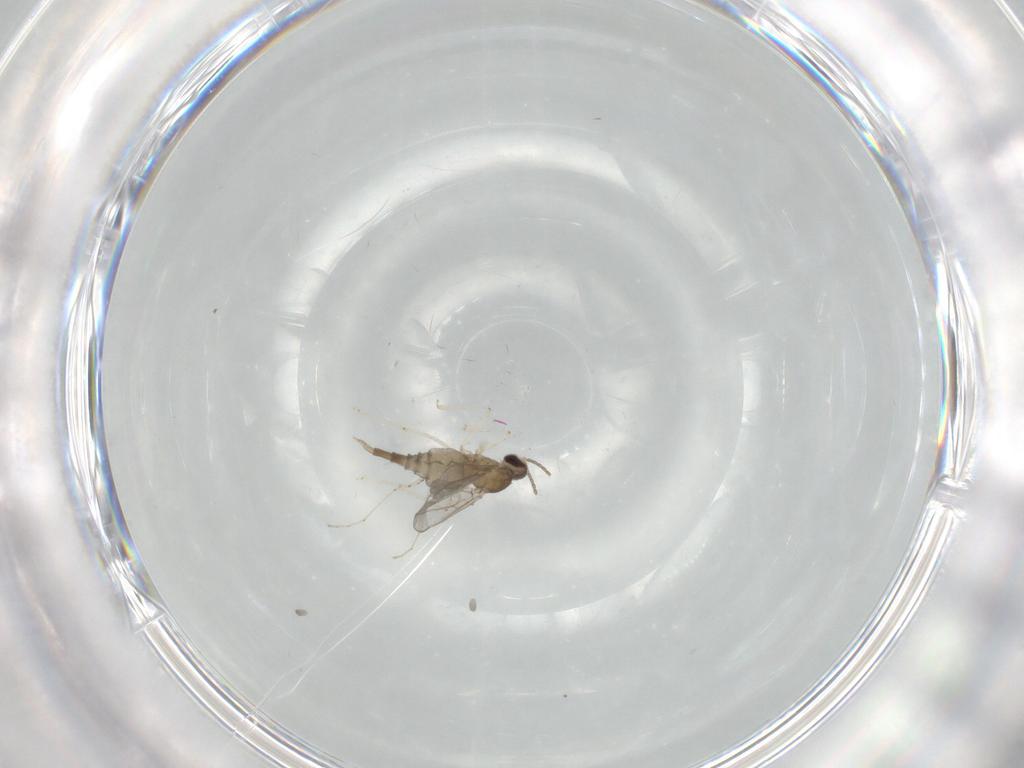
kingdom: Animalia
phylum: Arthropoda
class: Insecta
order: Diptera
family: Cecidomyiidae
